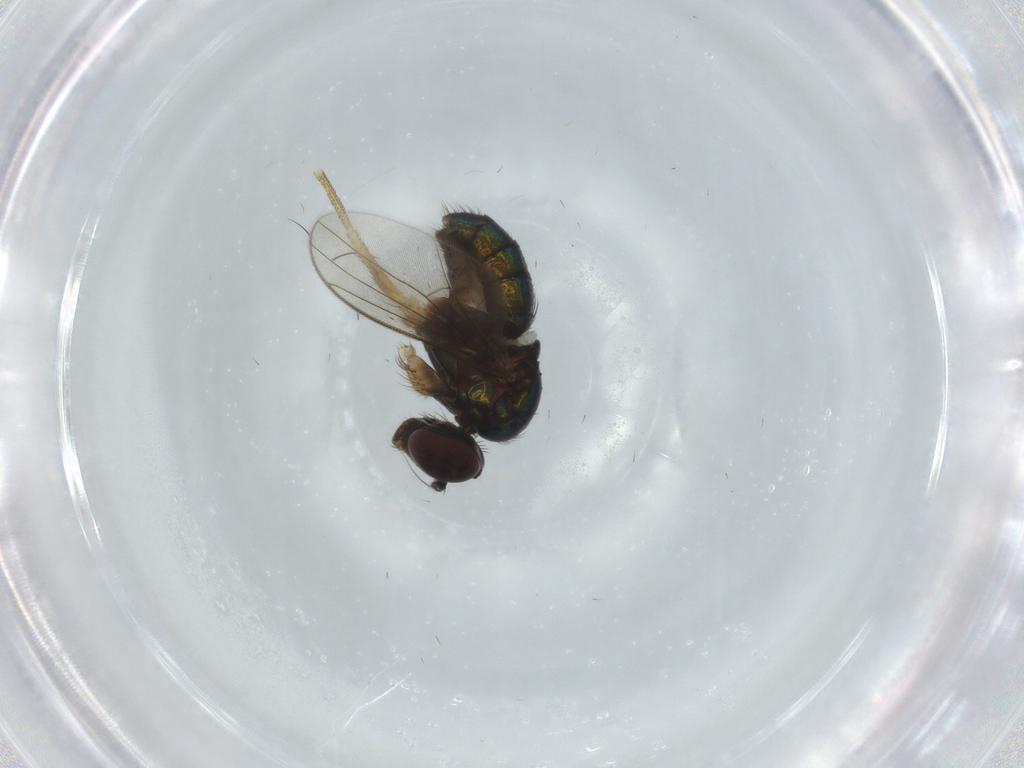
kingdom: Animalia
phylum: Arthropoda
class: Insecta
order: Diptera
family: Dolichopodidae
